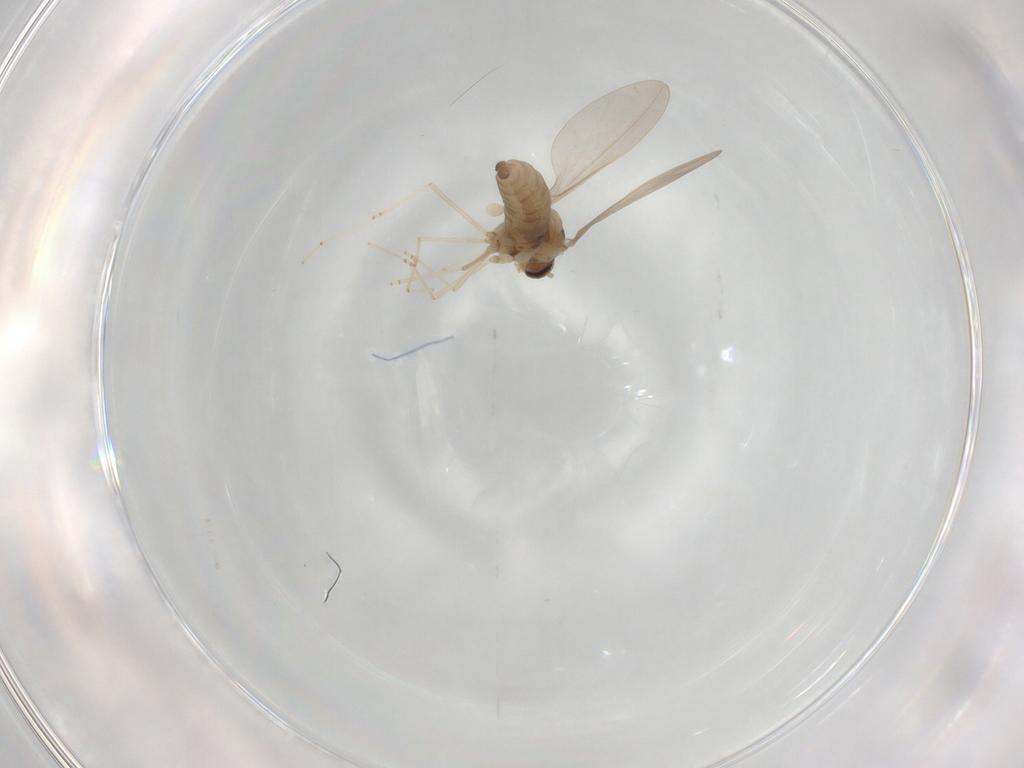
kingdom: Animalia
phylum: Arthropoda
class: Insecta
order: Diptera
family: Cecidomyiidae
